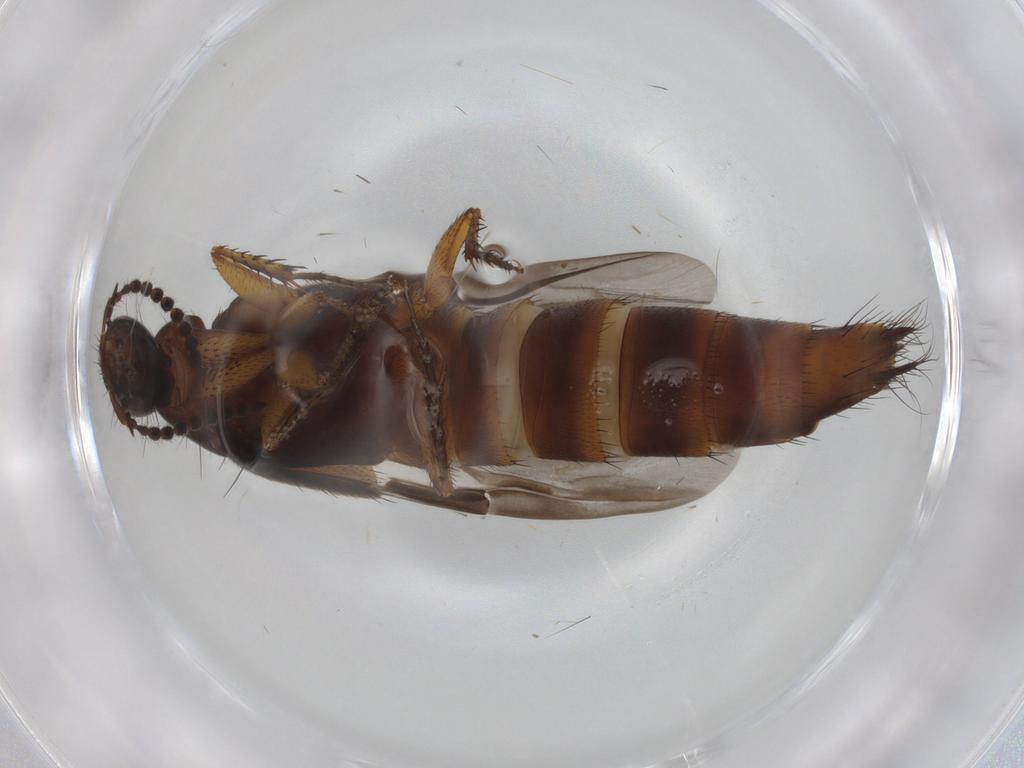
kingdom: Animalia
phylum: Arthropoda
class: Insecta
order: Coleoptera
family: Staphylinidae
